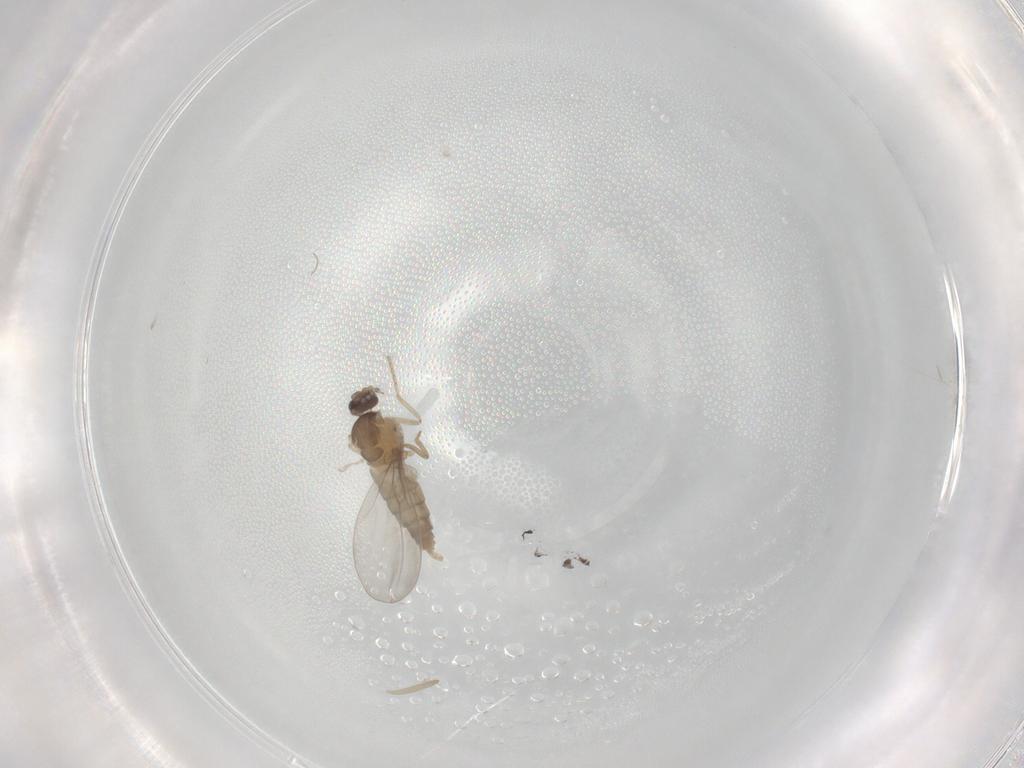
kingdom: Animalia
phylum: Arthropoda
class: Insecta
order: Diptera
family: Cecidomyiidae
